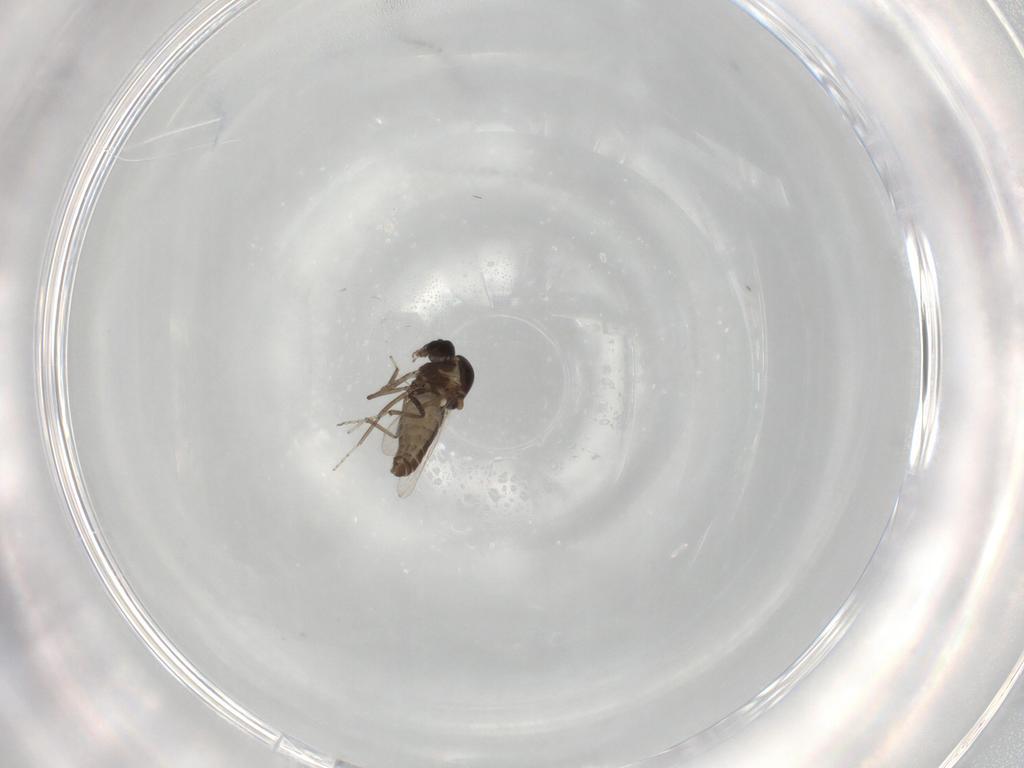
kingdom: Animalia
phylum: Arthropoda
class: Insecta
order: Diptera
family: Ceratopogonidae
